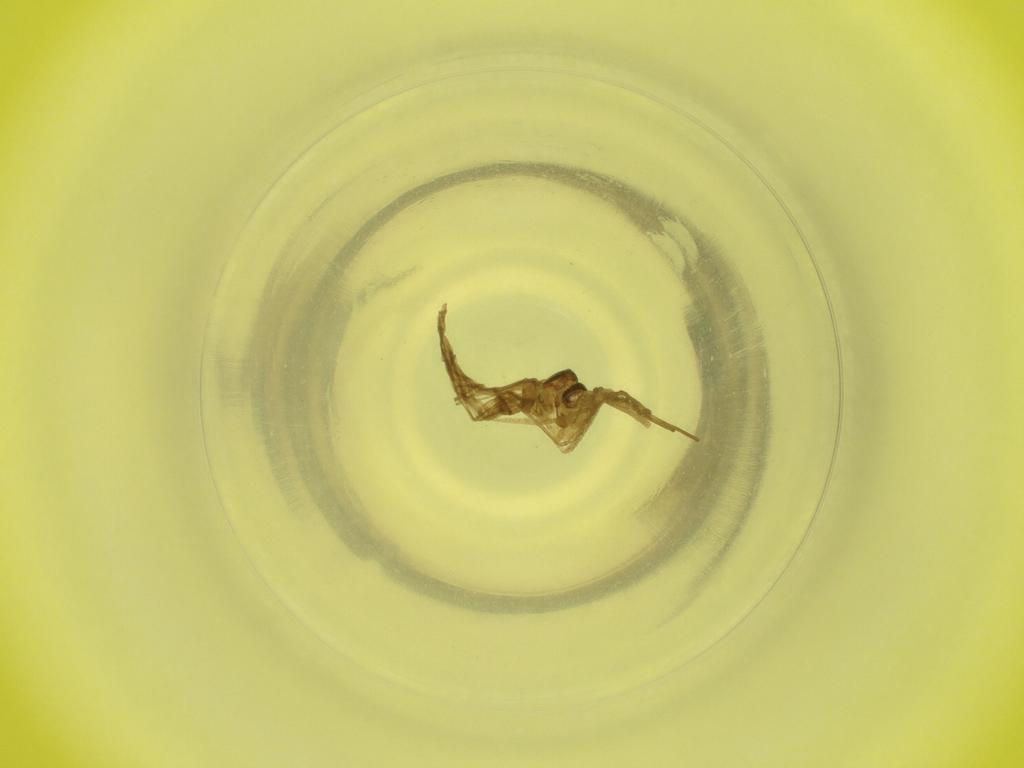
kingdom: Animalia
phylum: Arthropoda
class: Insecta
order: Diptera
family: Cecidomyiidae
